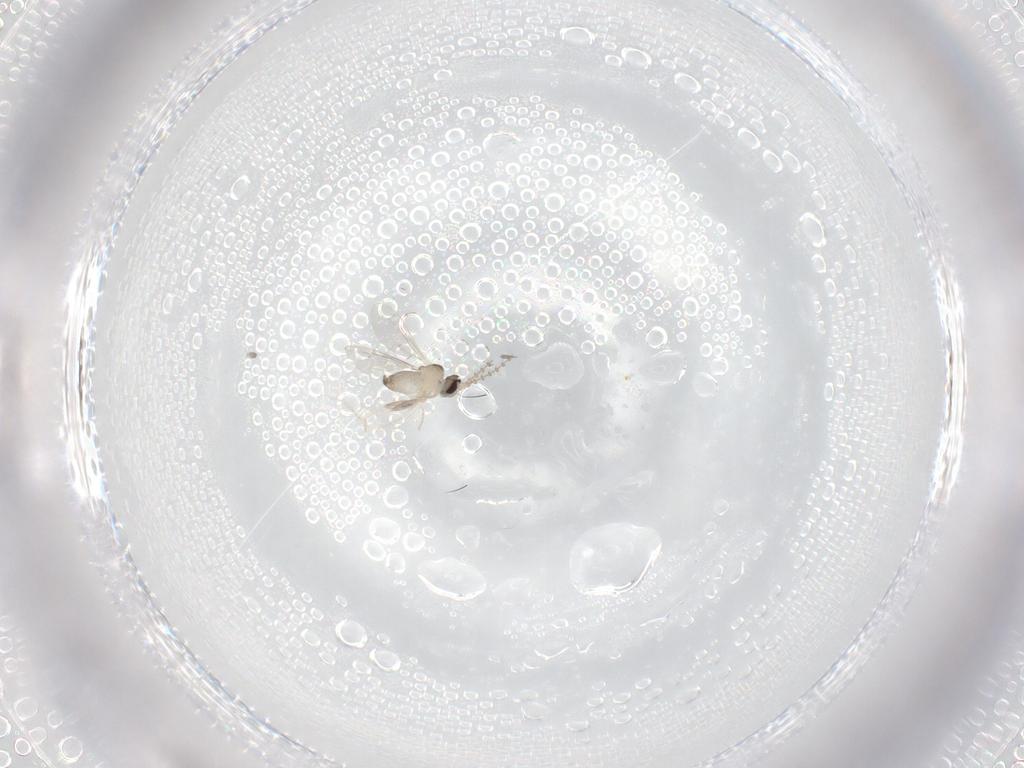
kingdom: Animalia
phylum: Arthropoda
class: Insecta
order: Diptera
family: Cecidomyiidae
